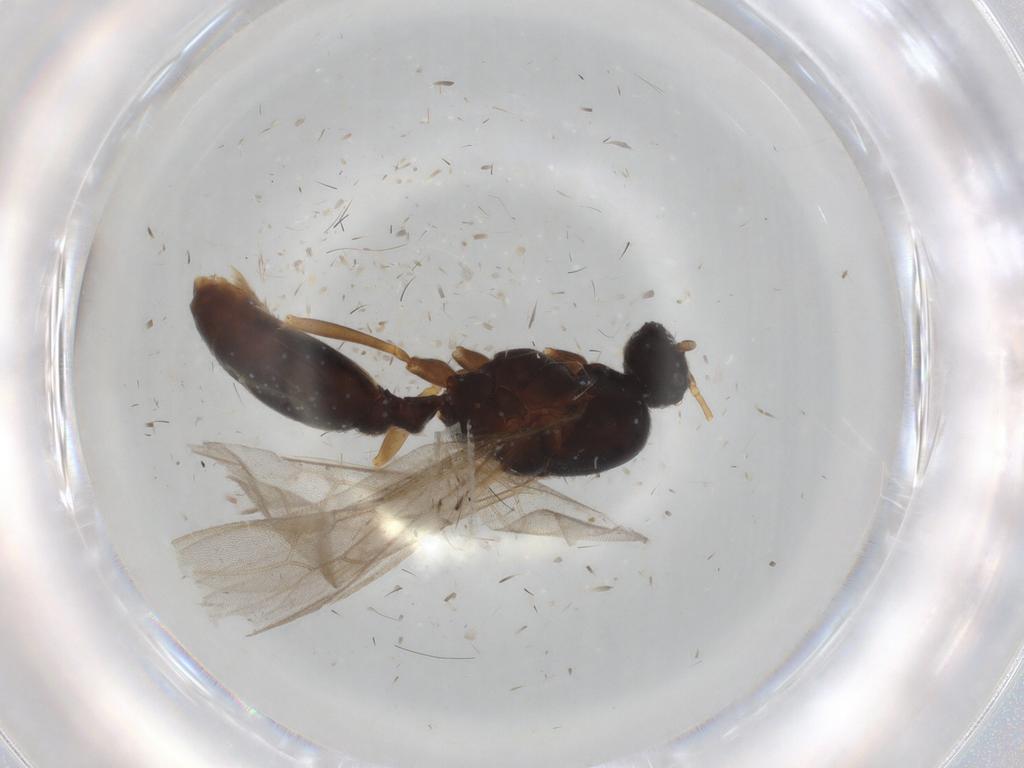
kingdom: Animalia
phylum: Arthropoda
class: Insecta
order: Hymenoptera
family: Formicidae
